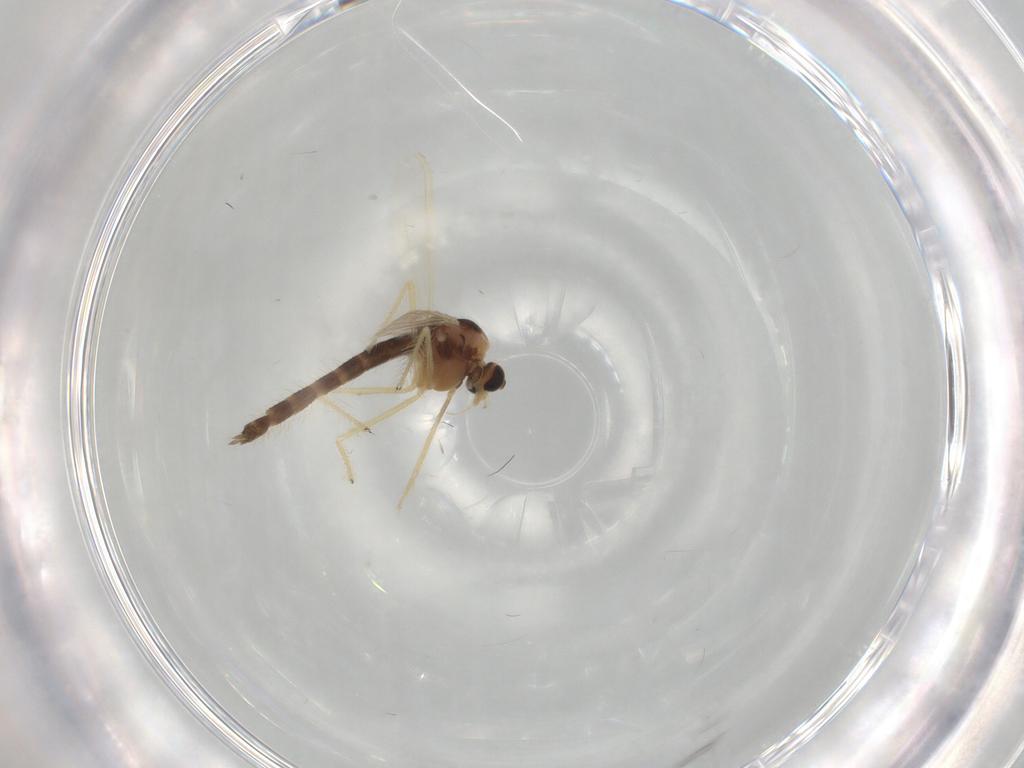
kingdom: Animalia
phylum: Arthropoda
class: Insecta
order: Diptera
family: Chironomidae
